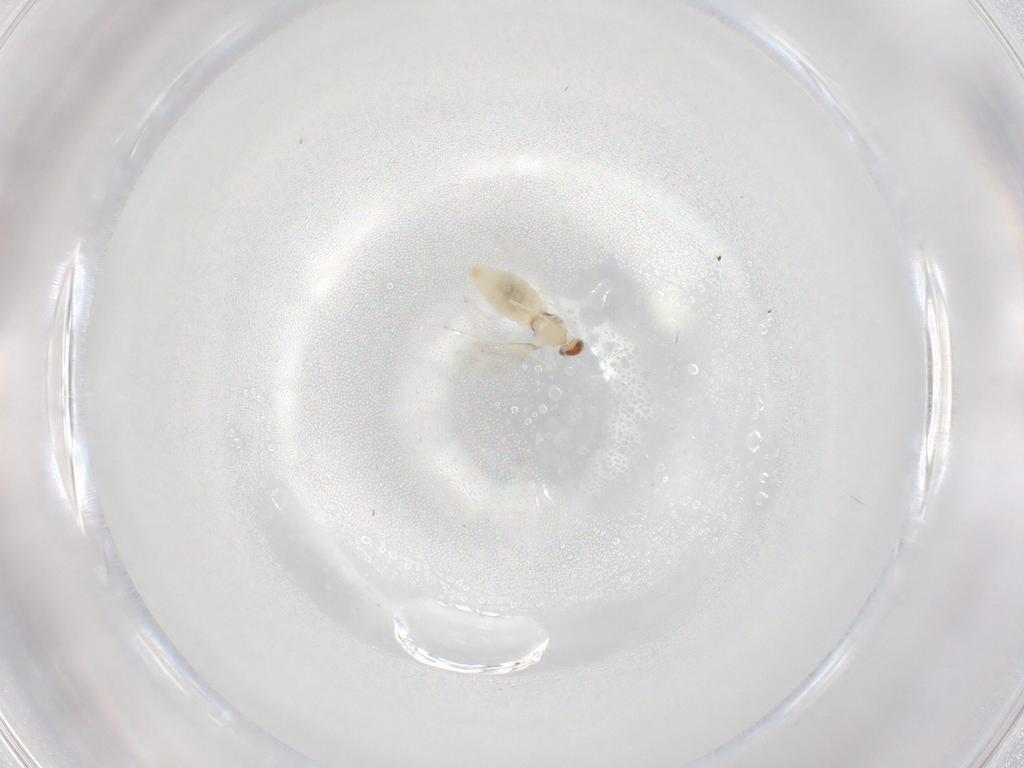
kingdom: Animalia
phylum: Arthropoda
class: Insecta
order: Diptera
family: Cecidomyiidae
